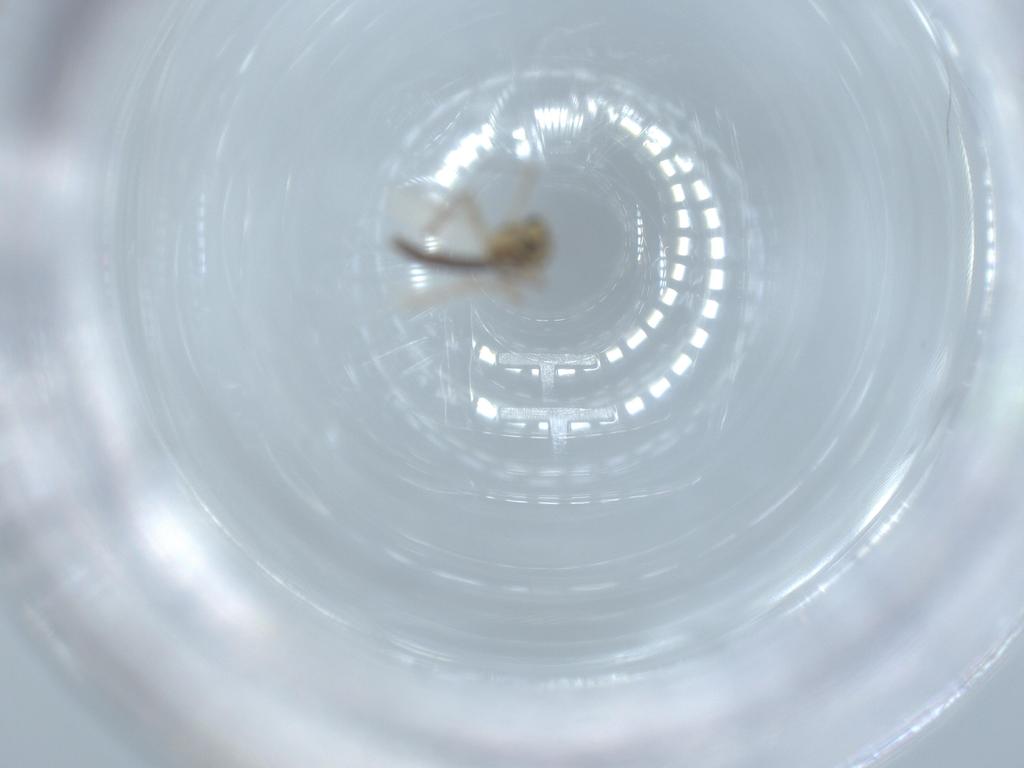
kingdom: Animalia
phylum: Arthropoda
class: Insecta
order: Diptera
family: Chironomidae
